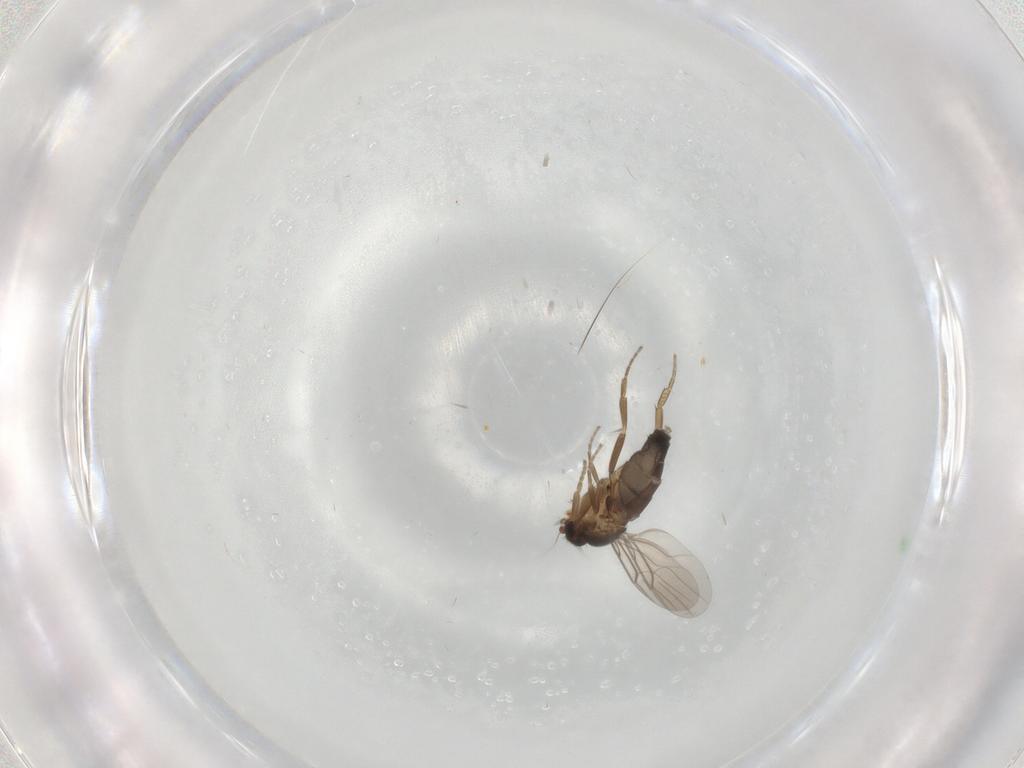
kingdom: Animalia
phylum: Arthropoda
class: Insecta
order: Diptera
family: Phoridae
